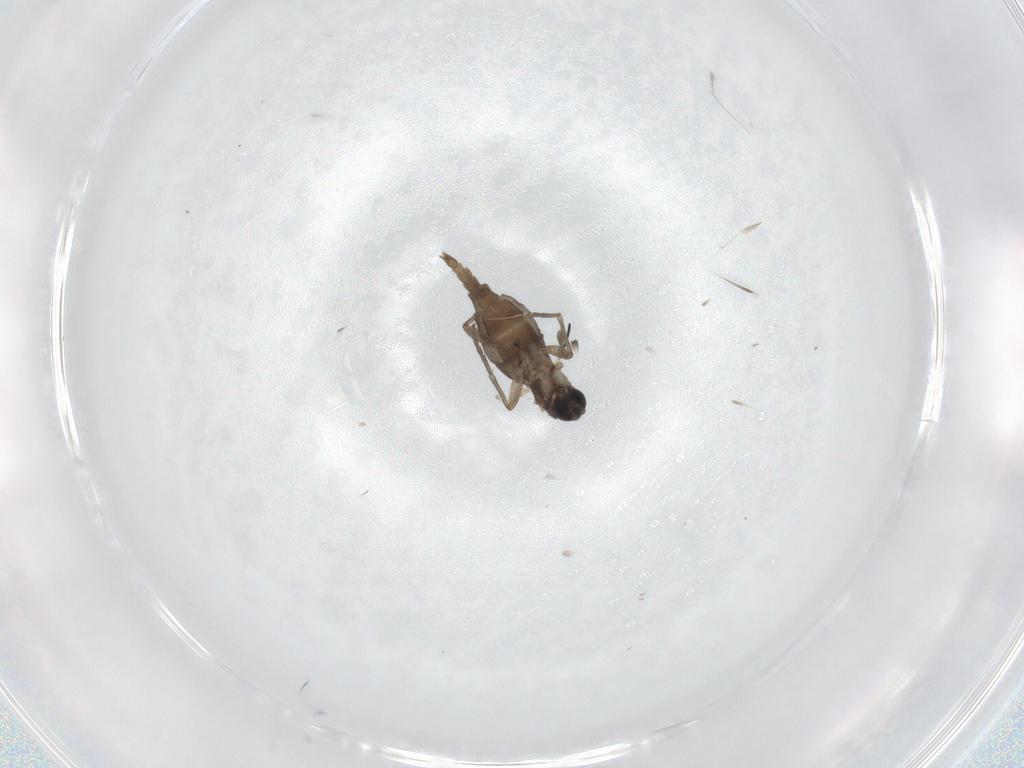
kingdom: Animalia
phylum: Arthropoda
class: Insecta
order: Diptera
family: Sciaridae
